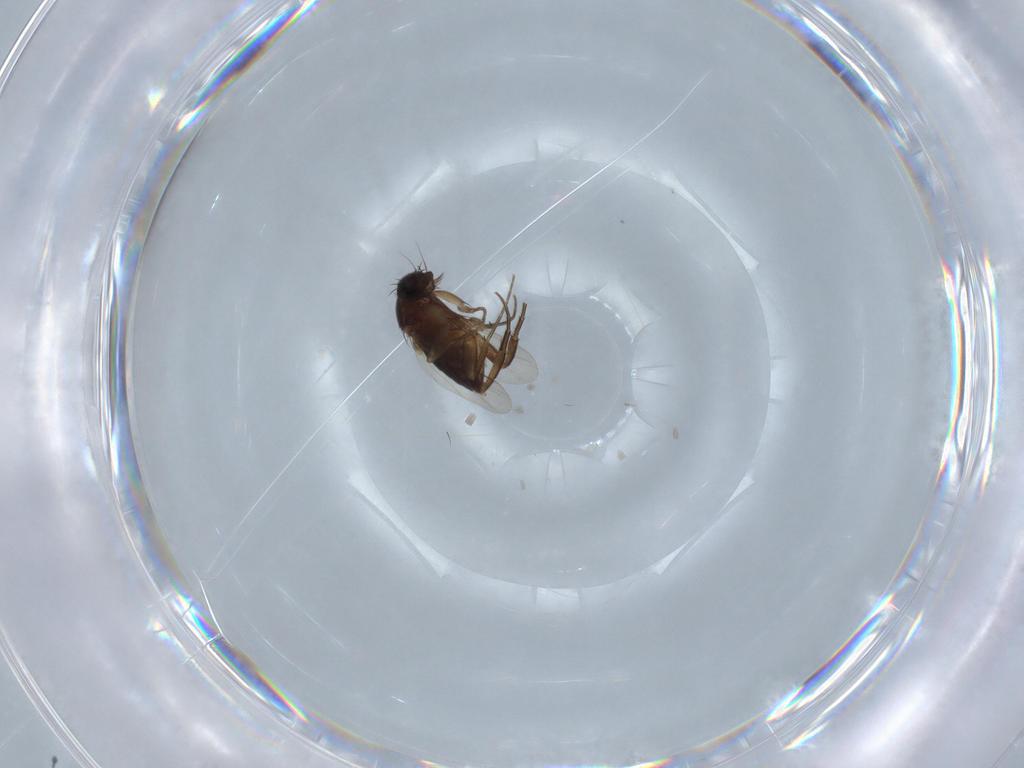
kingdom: Animalia
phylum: Arthropoda
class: Insecta
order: Diptera
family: Phoridae
